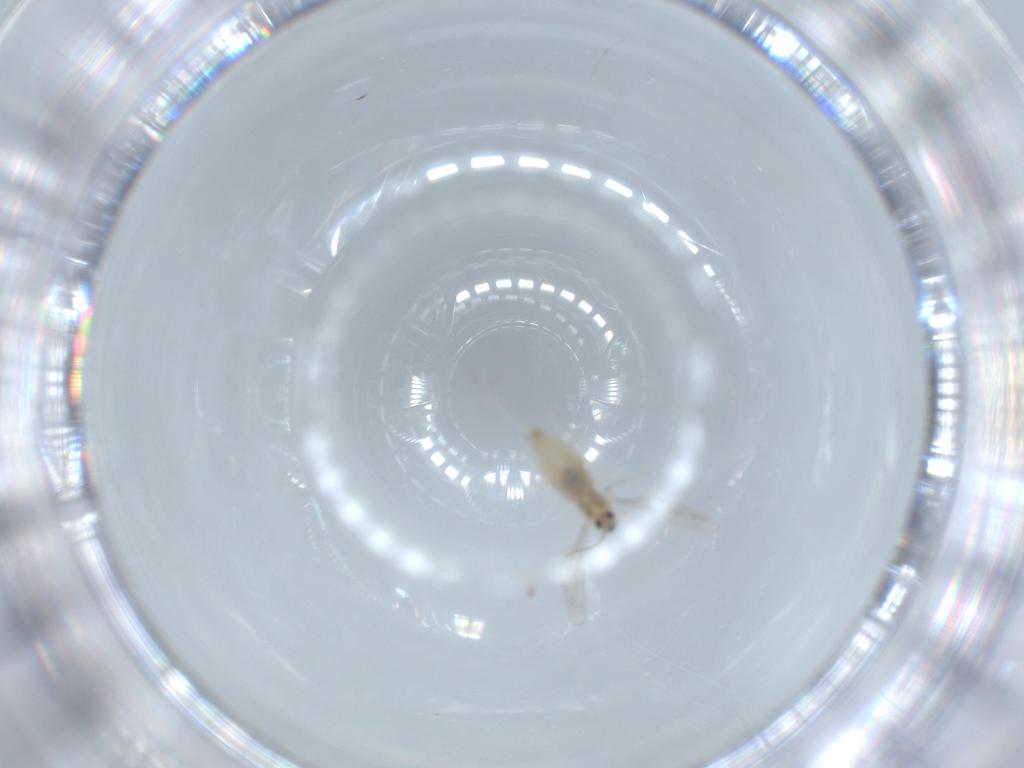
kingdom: Animalia
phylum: Arthropoda
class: Insecta
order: Diptera
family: Cecidomyiidae
